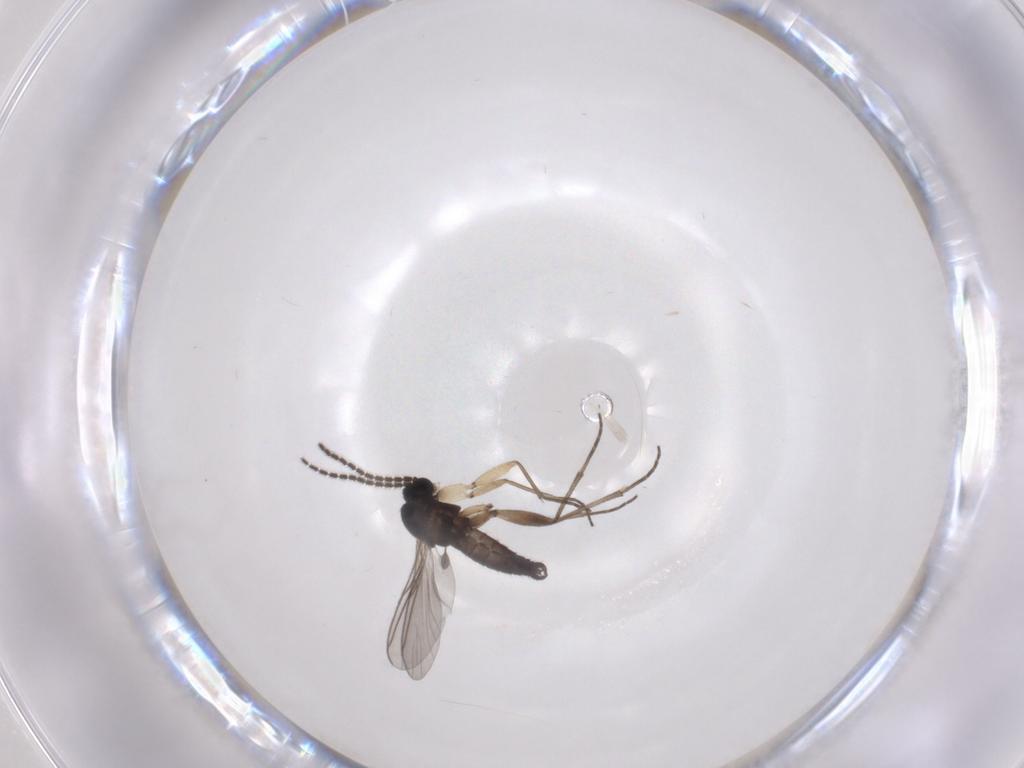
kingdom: Animalia
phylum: Arthropoda
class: Insecta
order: Diptera
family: Sciaridae
